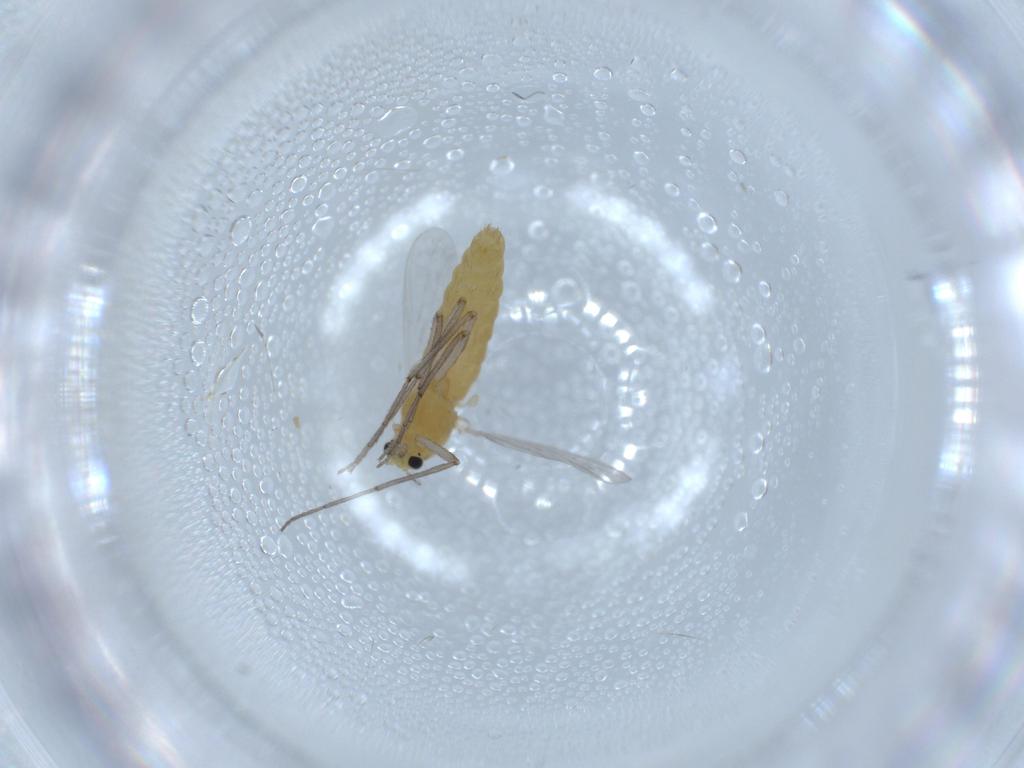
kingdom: Animalia
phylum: Arthropoda
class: Insecta
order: Diptera
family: Chironomidae
